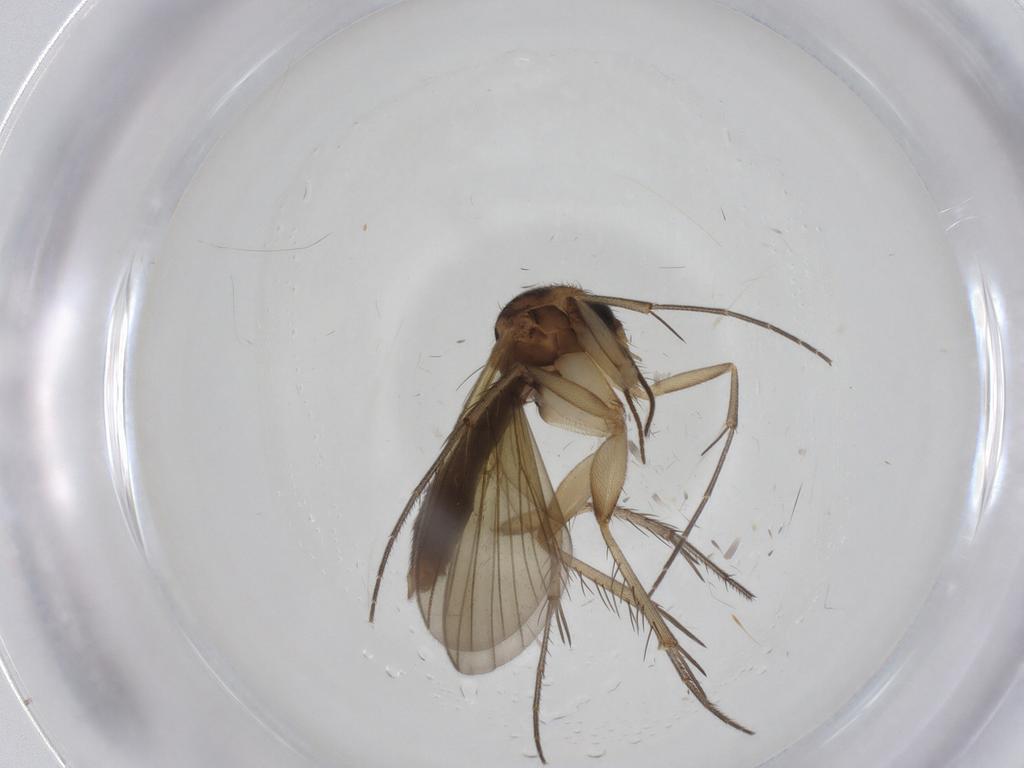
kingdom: Animalia
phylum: Arthropoda
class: Insecta
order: Diptera
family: Mycetophilidae
